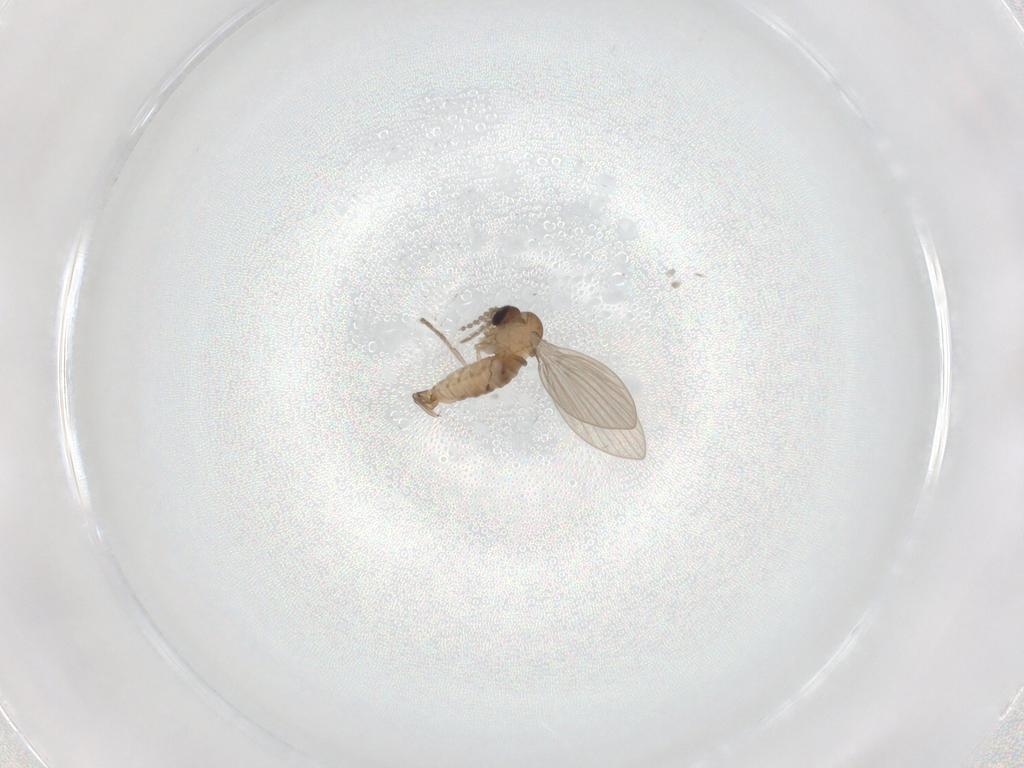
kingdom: Animalia
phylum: Arthropoda
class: Insecta
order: Diptera
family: Phoridae
